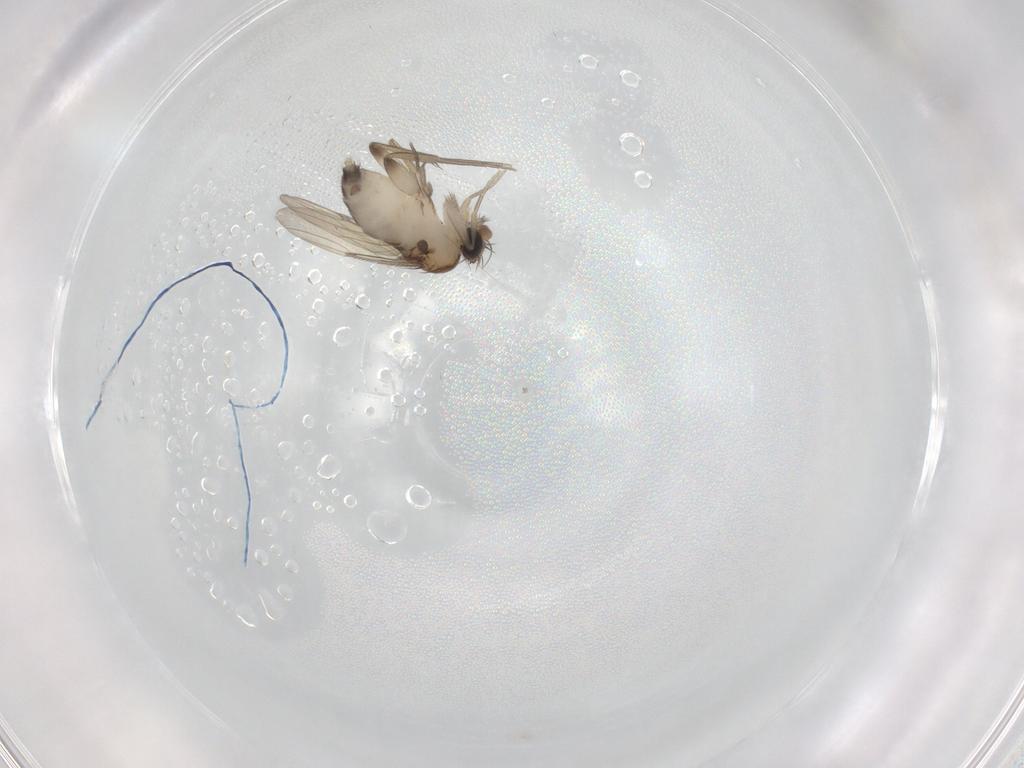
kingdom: Animalia
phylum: Arthropoda
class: Insecta
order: Diptera
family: Phoridae
